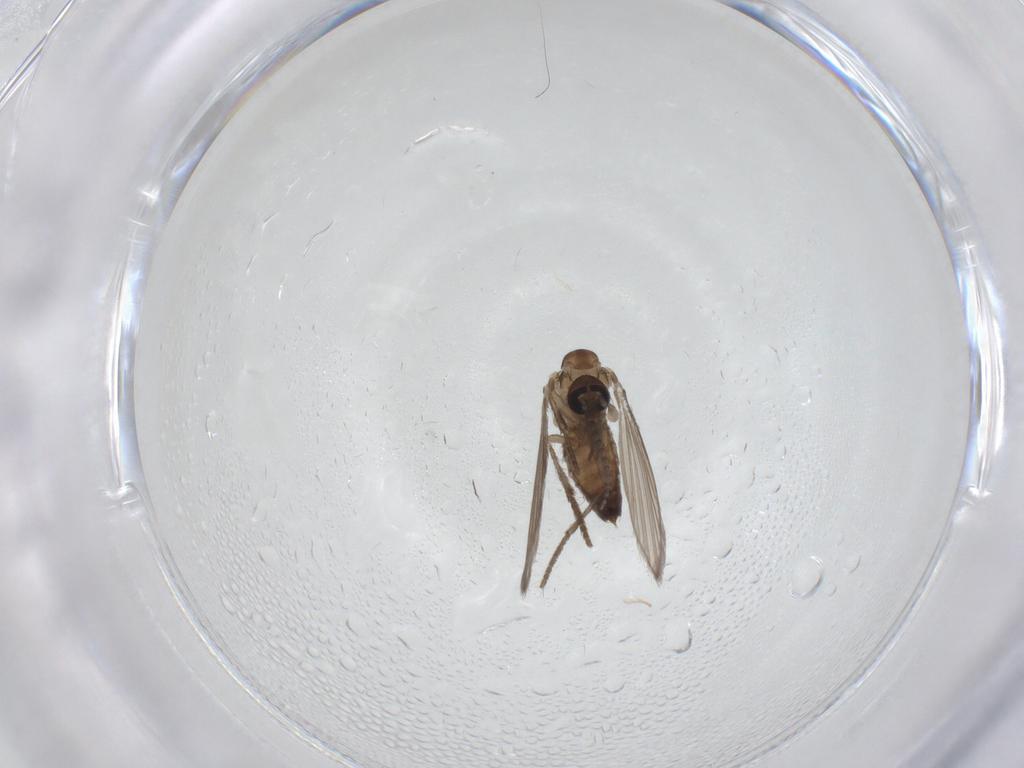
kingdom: Animalia
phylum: Arthropoda
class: Insecta
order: Diptera
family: Psychodidae
